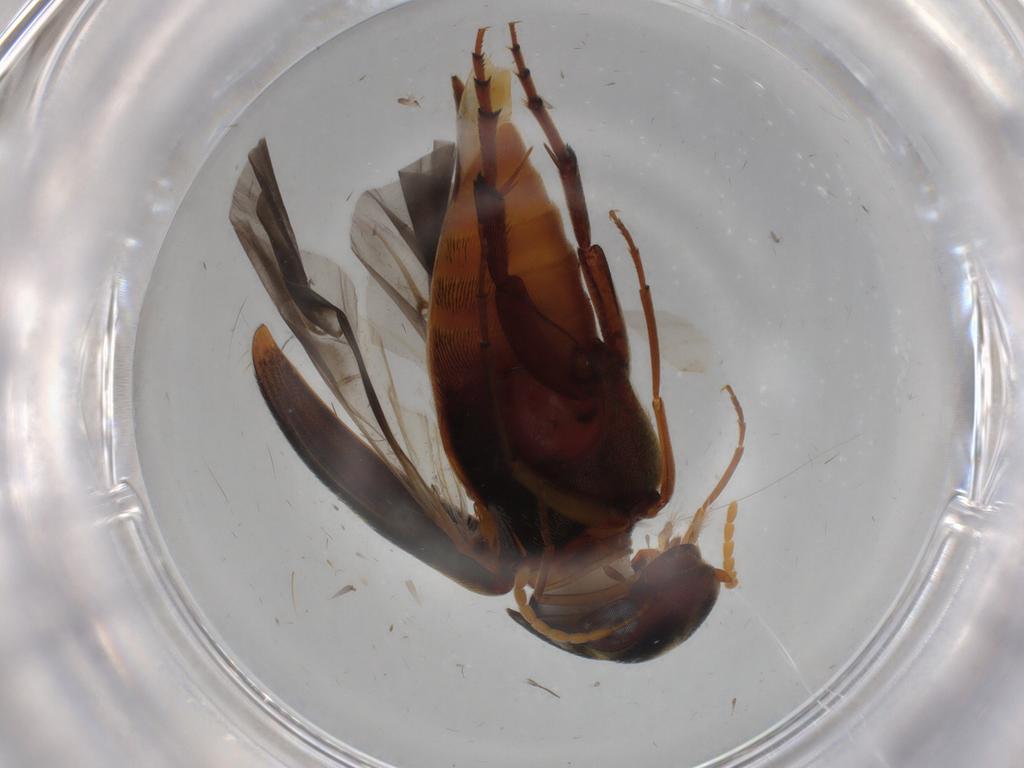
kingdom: Animalia
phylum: Arthropoda
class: Insecta
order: Coleoptera
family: Mordellidae
